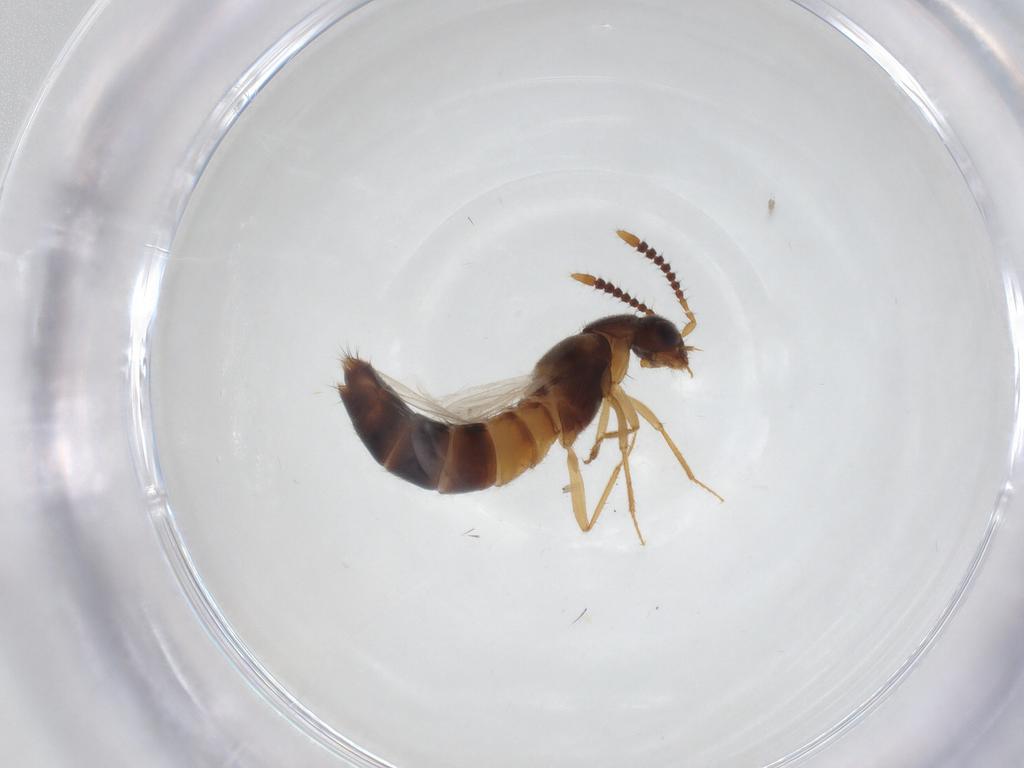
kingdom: Animalia
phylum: Arthropoda
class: Insecta
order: Coleoptera
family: Staphylinidae
